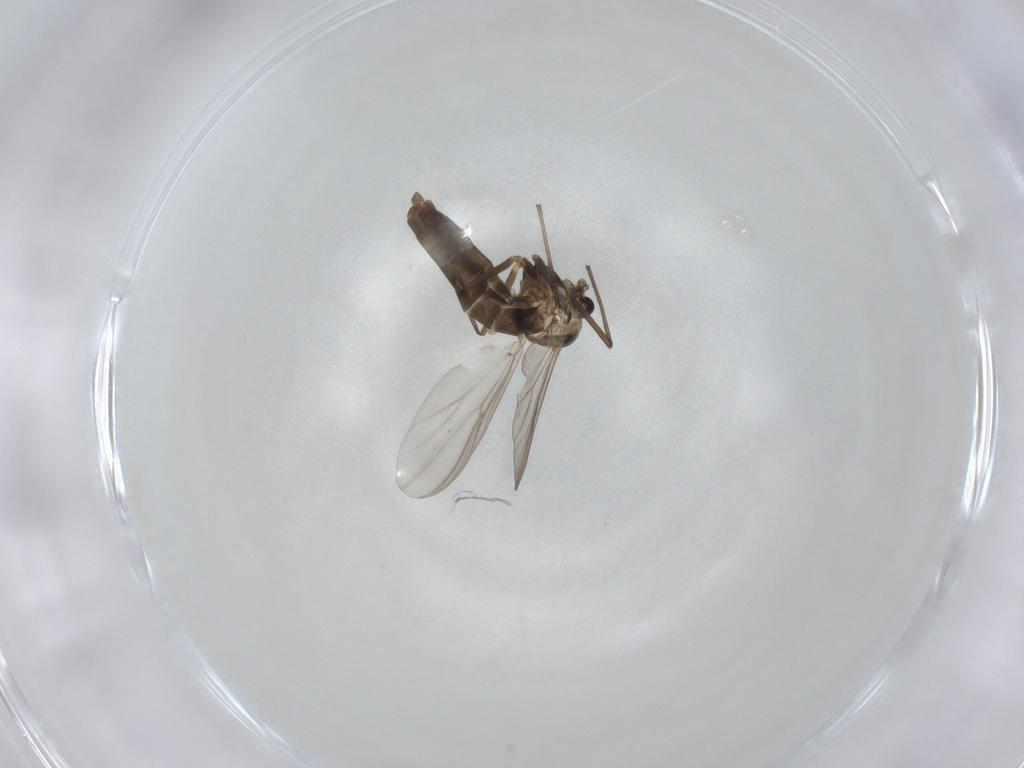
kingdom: Animalia
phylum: Arthropoda
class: Insecta
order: Diptera
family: Chironomidae
